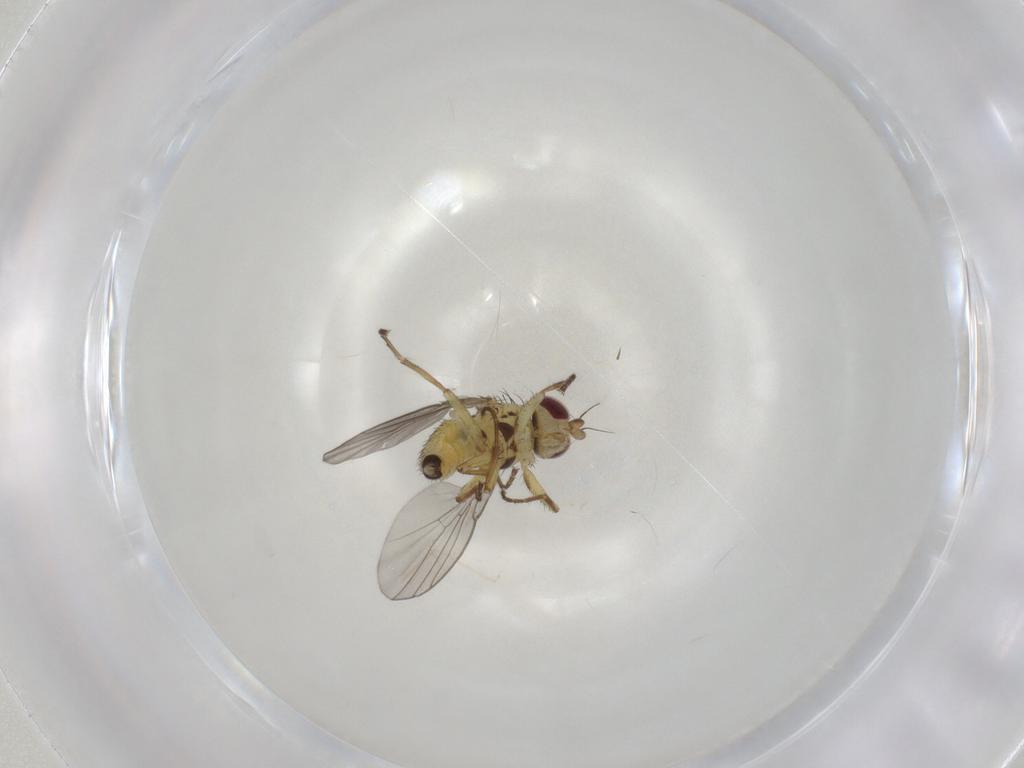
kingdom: Animalia
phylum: Arthropoda
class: Insecta
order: Diptera
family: Agromyzidae
